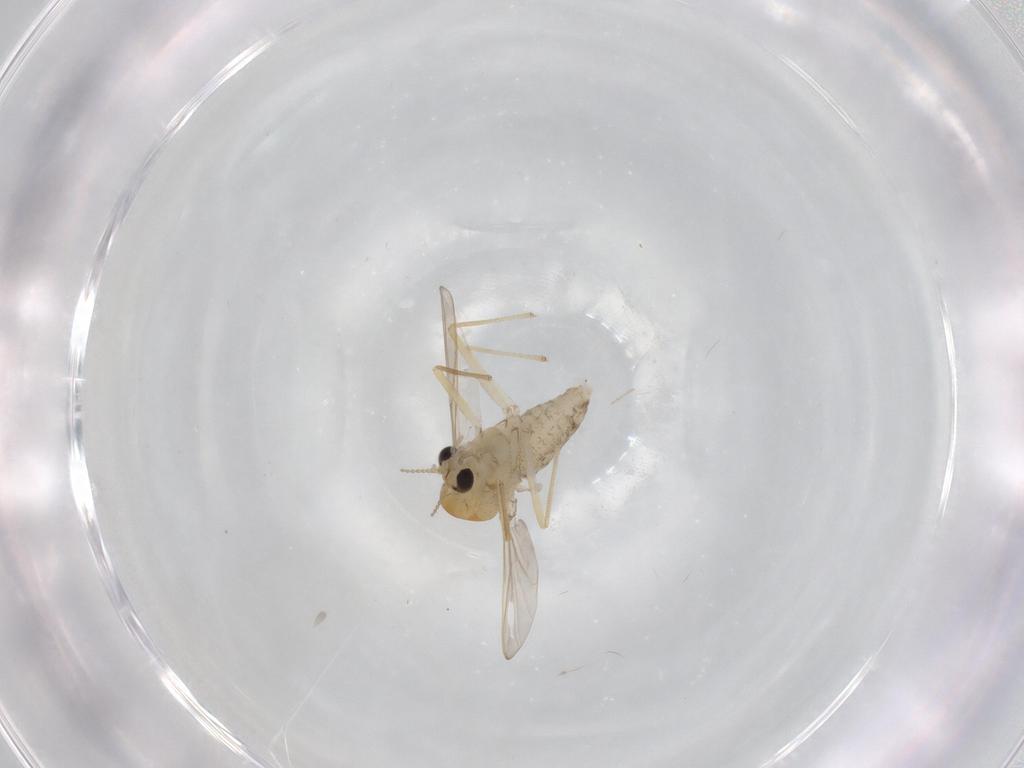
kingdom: Animalia
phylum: Arthropoda
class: Insecta
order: Diptera
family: Chironomidae
